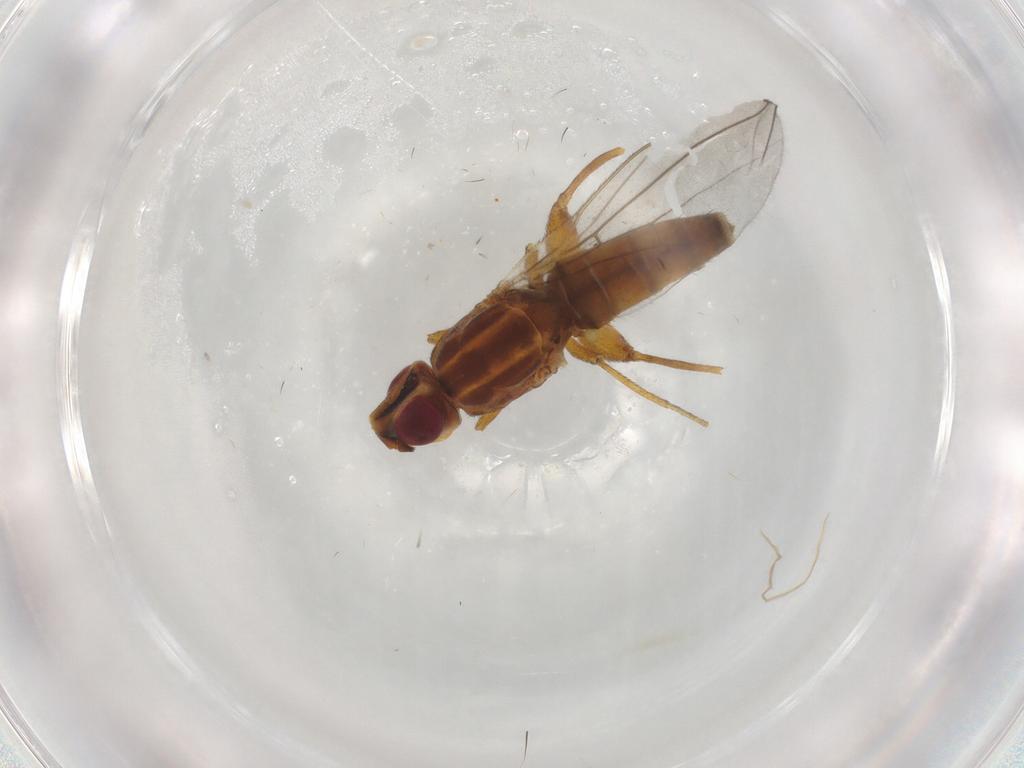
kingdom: Animalia
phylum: Arthropoda
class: Insecta
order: Diptera
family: Chloropidae
